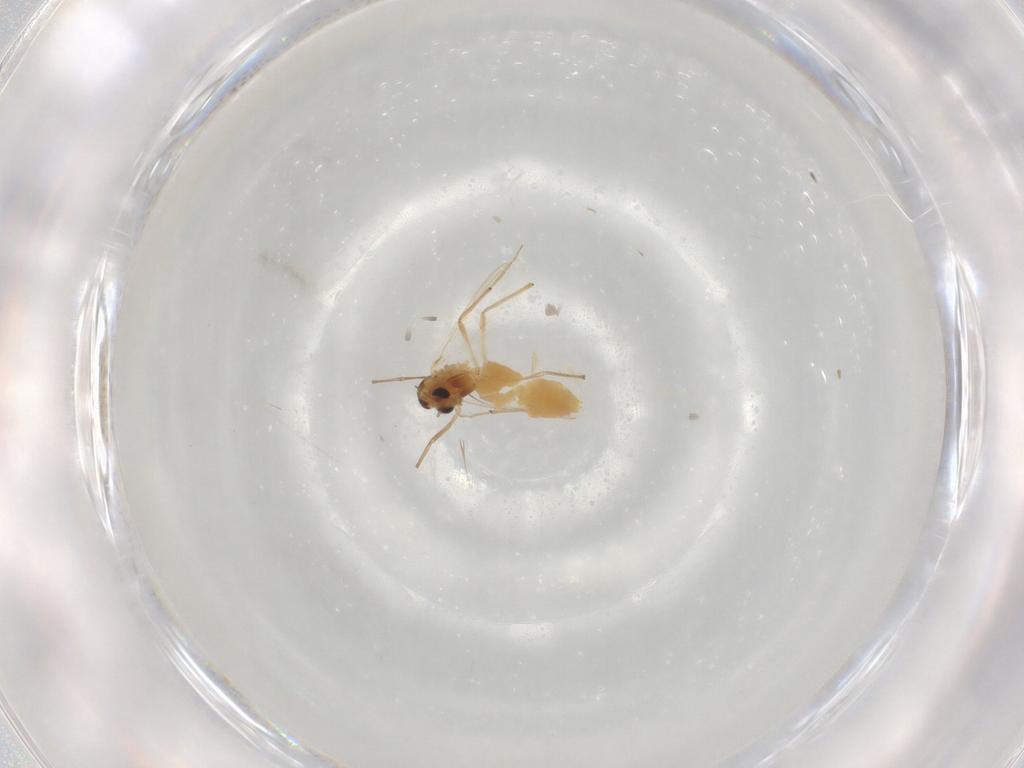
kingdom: Animalia
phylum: Arthropoda
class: Insecta
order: Diptera
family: Chironomidae
